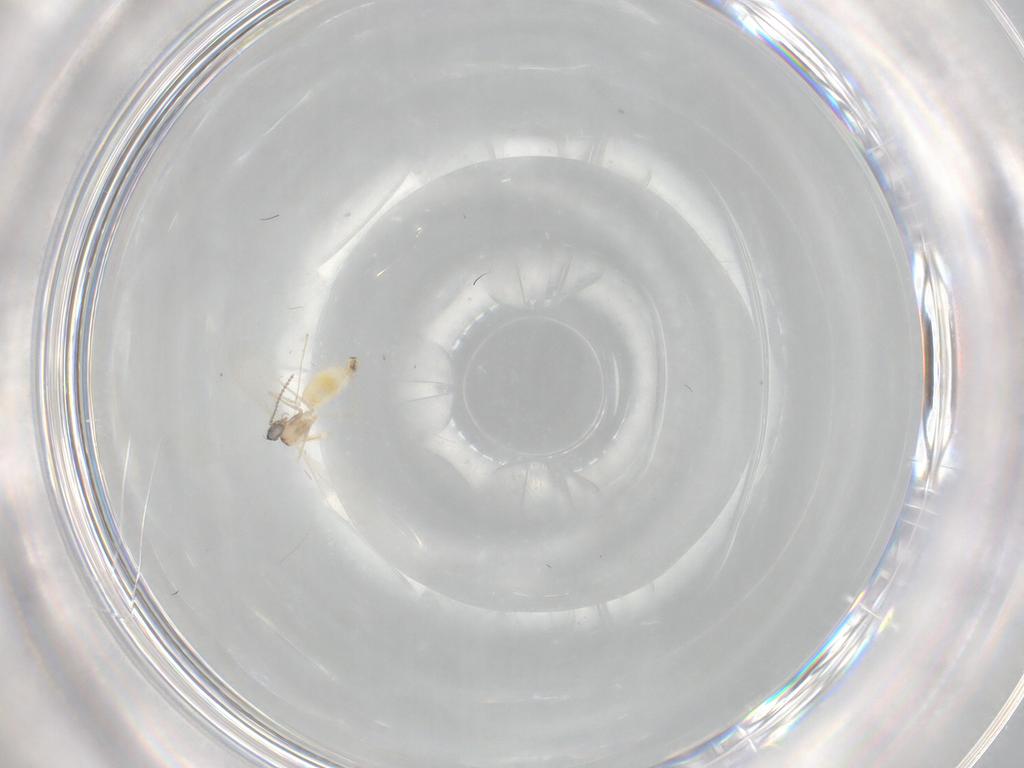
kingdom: Animalia
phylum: Arthropoda
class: Insecta
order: Diptera
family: Cecidomyiidae
